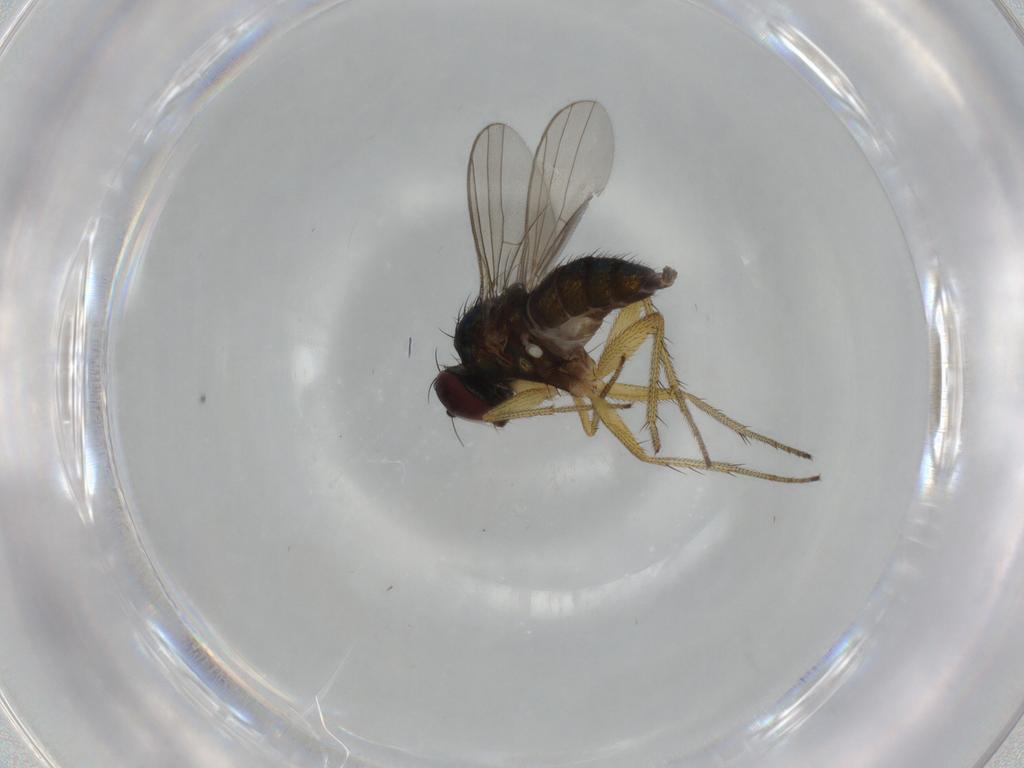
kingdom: Animalia
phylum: Arthropoda
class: Insecta
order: Diptera
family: Dolichopodidae
